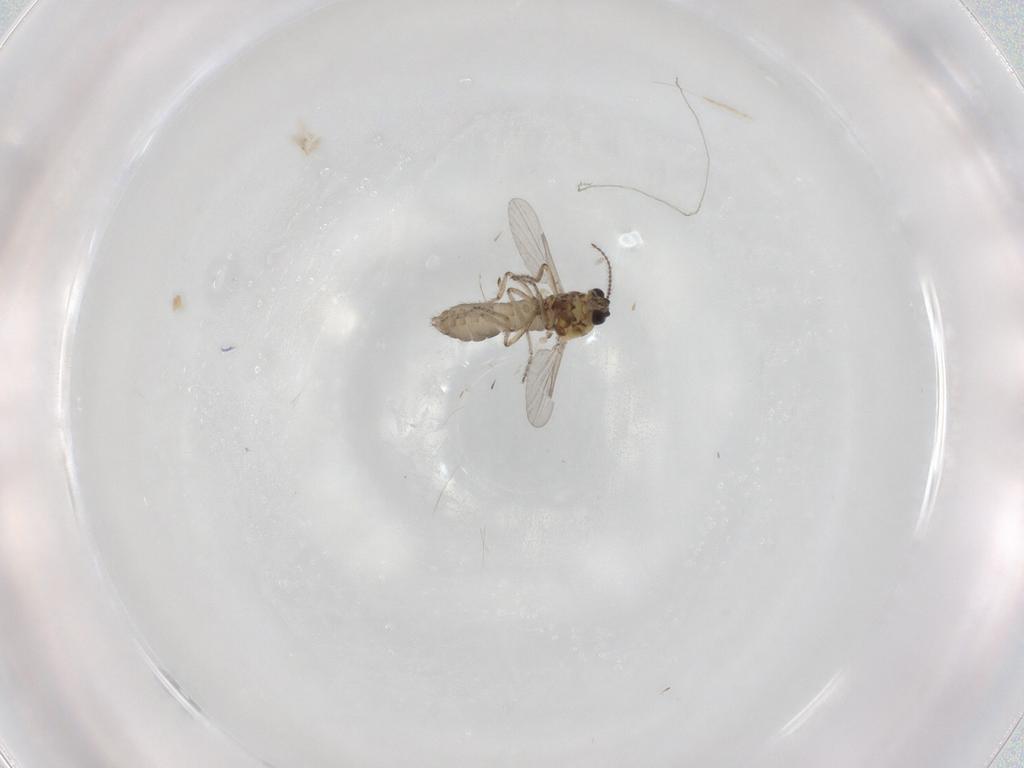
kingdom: Animalia
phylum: Arthropoda
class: Insecta
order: Diptera
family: Ceratopogonidae
